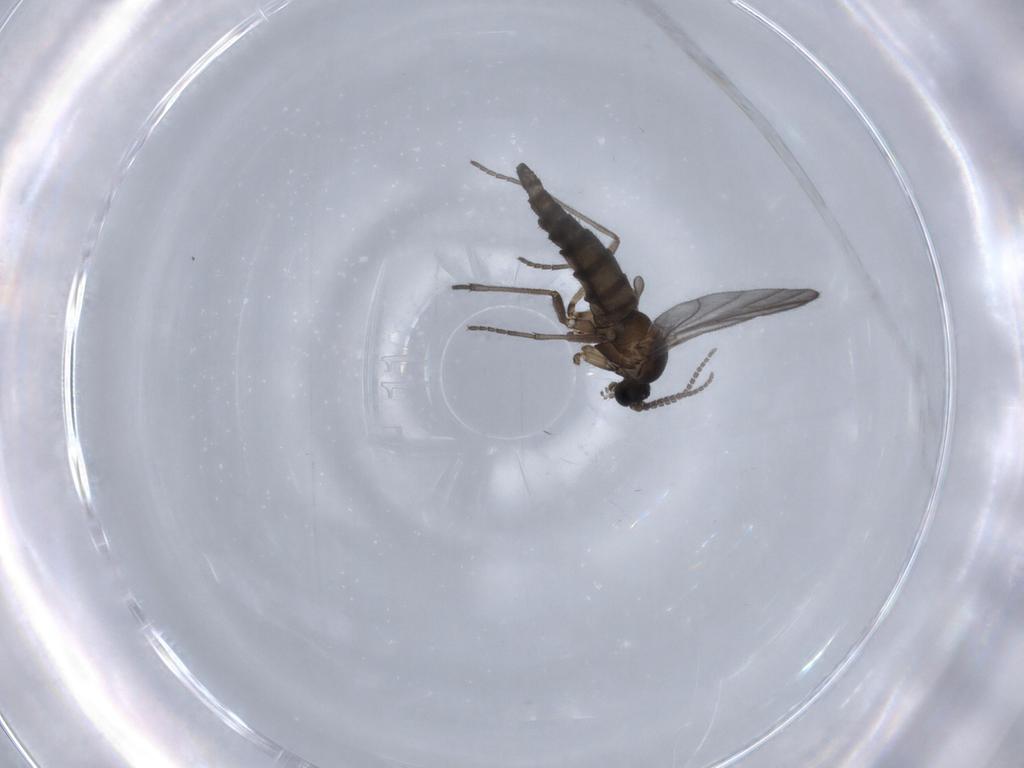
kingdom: Animalia
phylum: Arthropoda
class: Insecta
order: Diptera
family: Sciaridae
